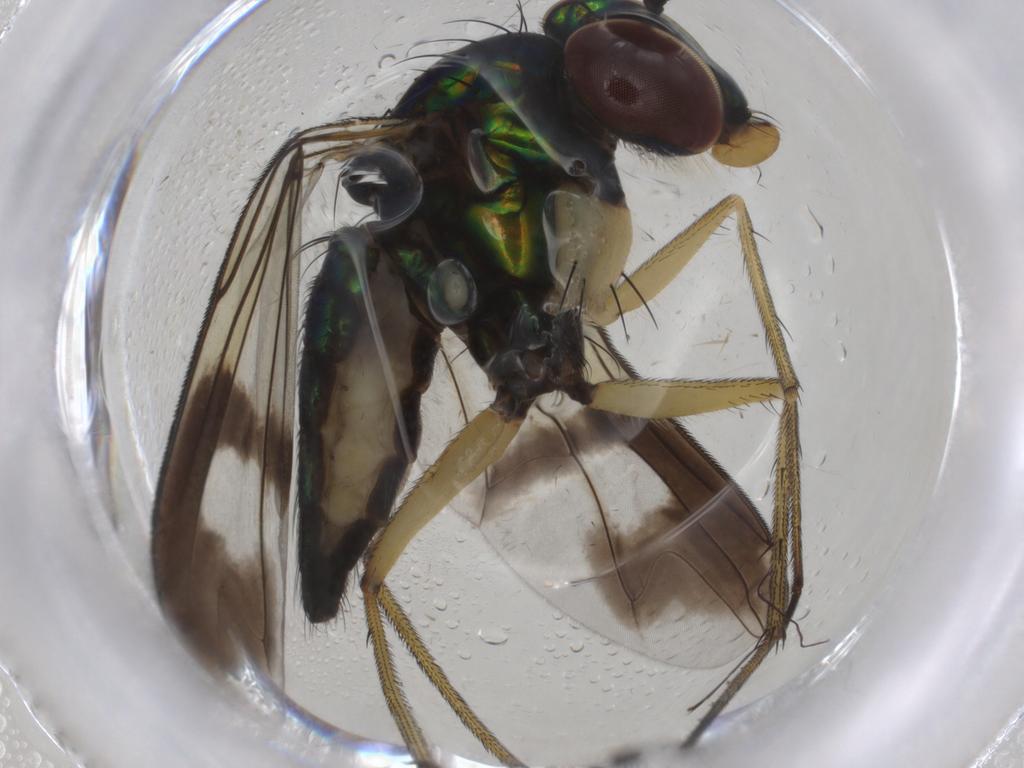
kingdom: Animalia
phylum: Arthropoda
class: Insecta
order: Diptera
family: Dolichopodidae
